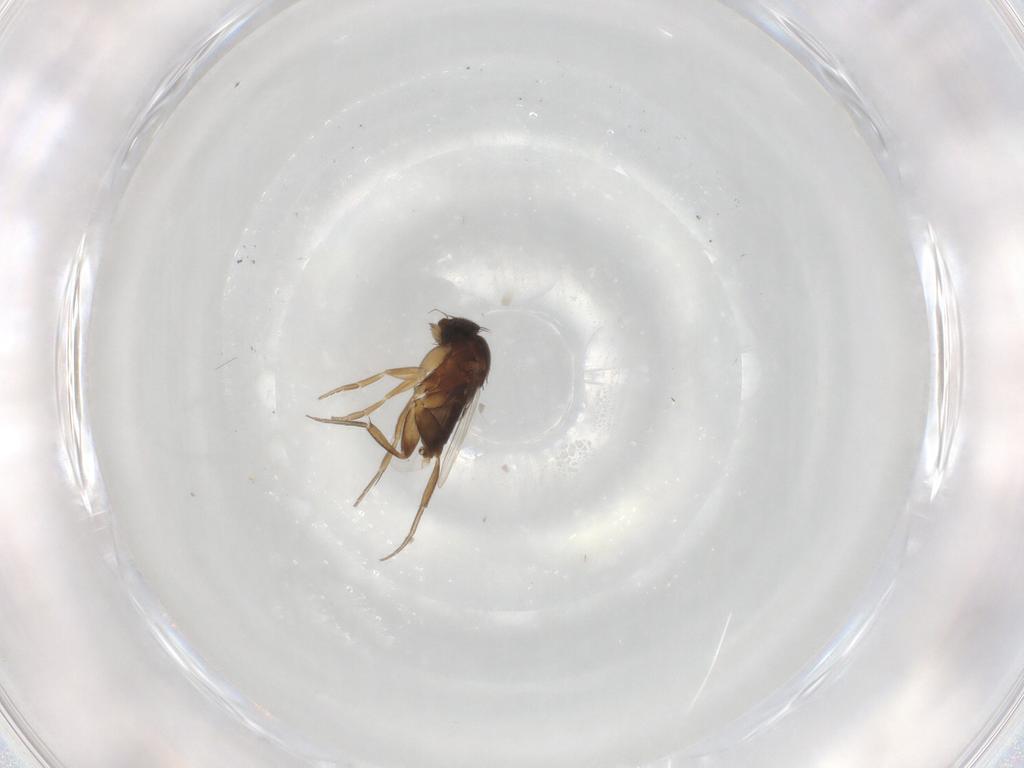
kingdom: Animalia
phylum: Arthropoda
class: Insecta
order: Diptera
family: Phoridae
